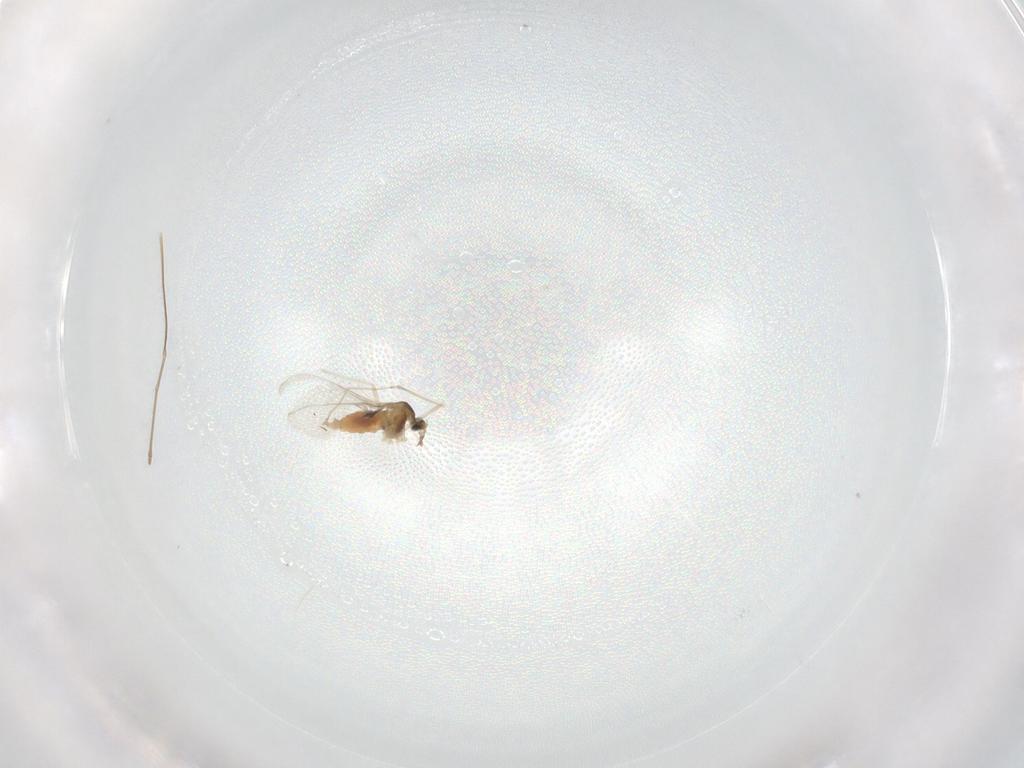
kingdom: Animalia
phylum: Arthropoda
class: Insecta
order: Diptera
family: Cecidomyiidae
